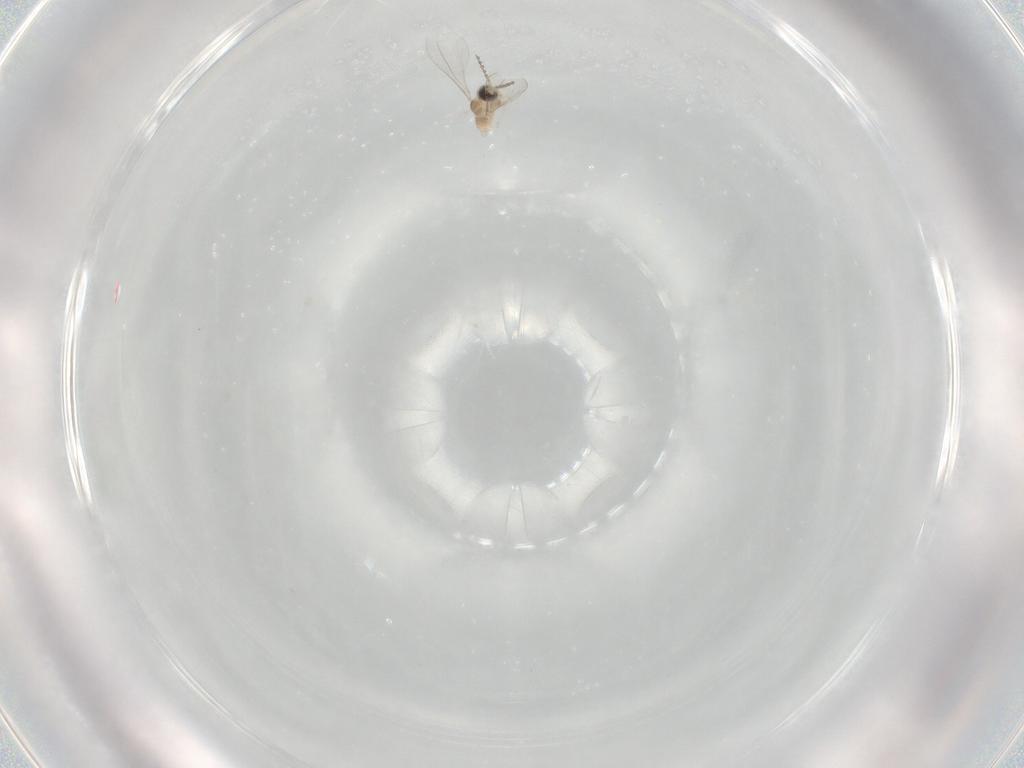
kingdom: Animalia
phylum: Arthropoda
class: Insecta
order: Diptera
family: Cecidomyiidae
